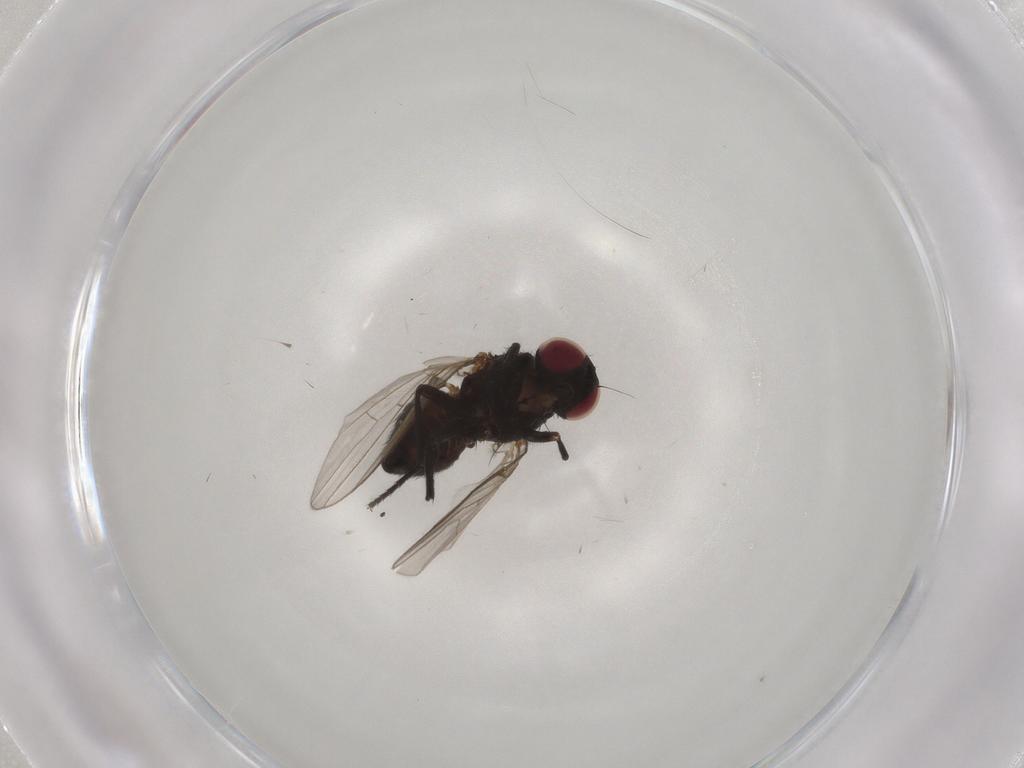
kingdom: Animalia
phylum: Arthropoda
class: Insecta
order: Diptera
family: Agromyzidae
